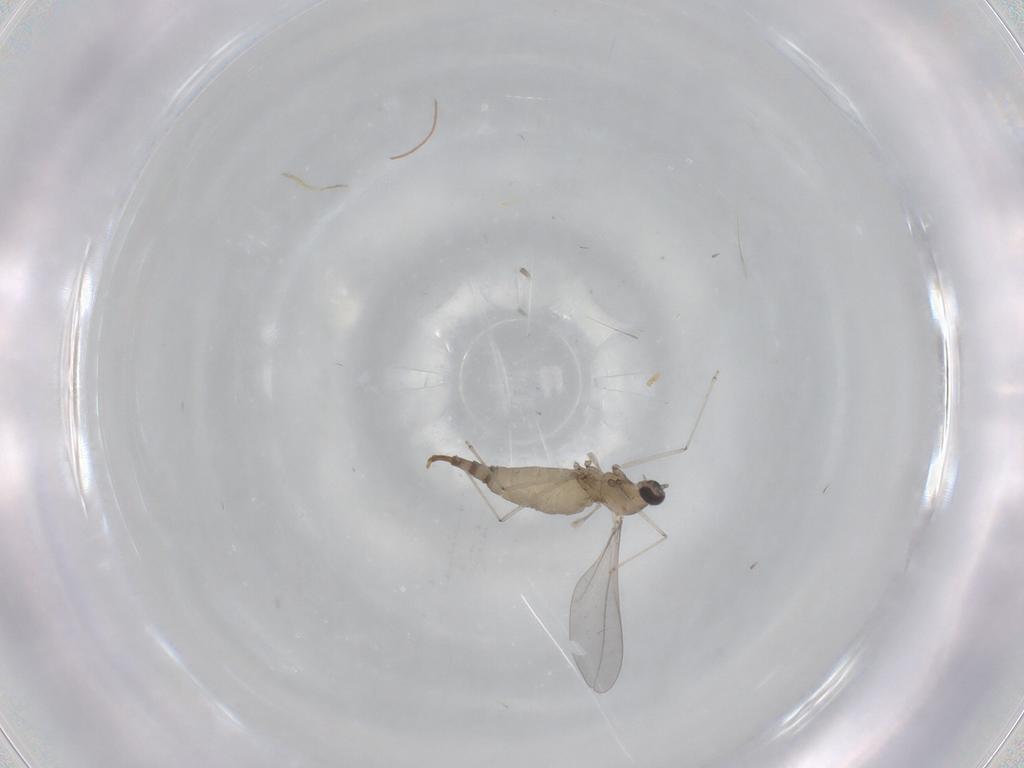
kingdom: Animalia
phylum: Arthropoda
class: Insecta
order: Diptera
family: Cecidomyiidae
